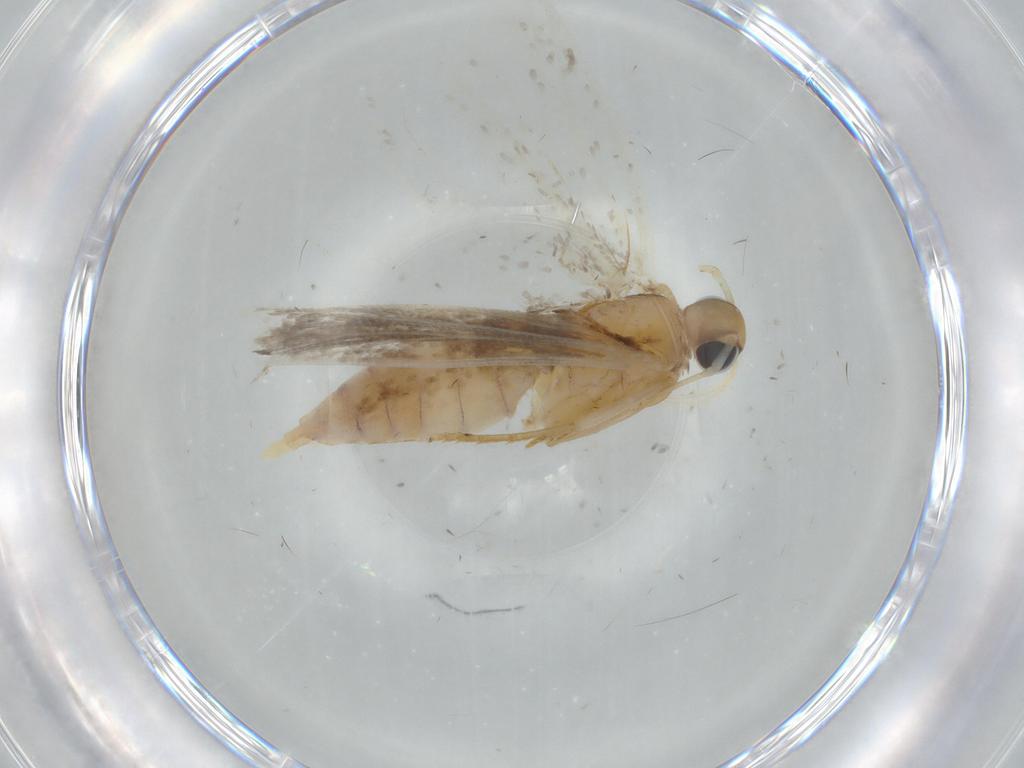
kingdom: Animalia
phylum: Arthropoda
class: Insecta
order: Lepidoptera
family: Gelechiidae
